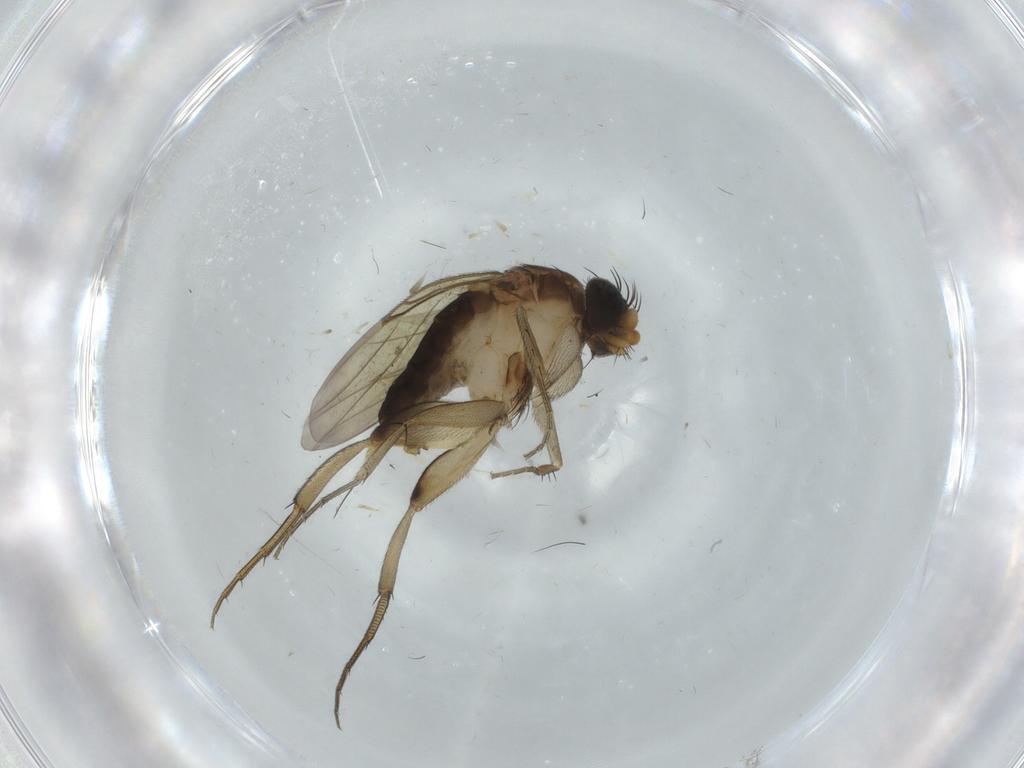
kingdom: Animalia
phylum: Arthropoda
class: Insecta
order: Diptera
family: Phoridae
